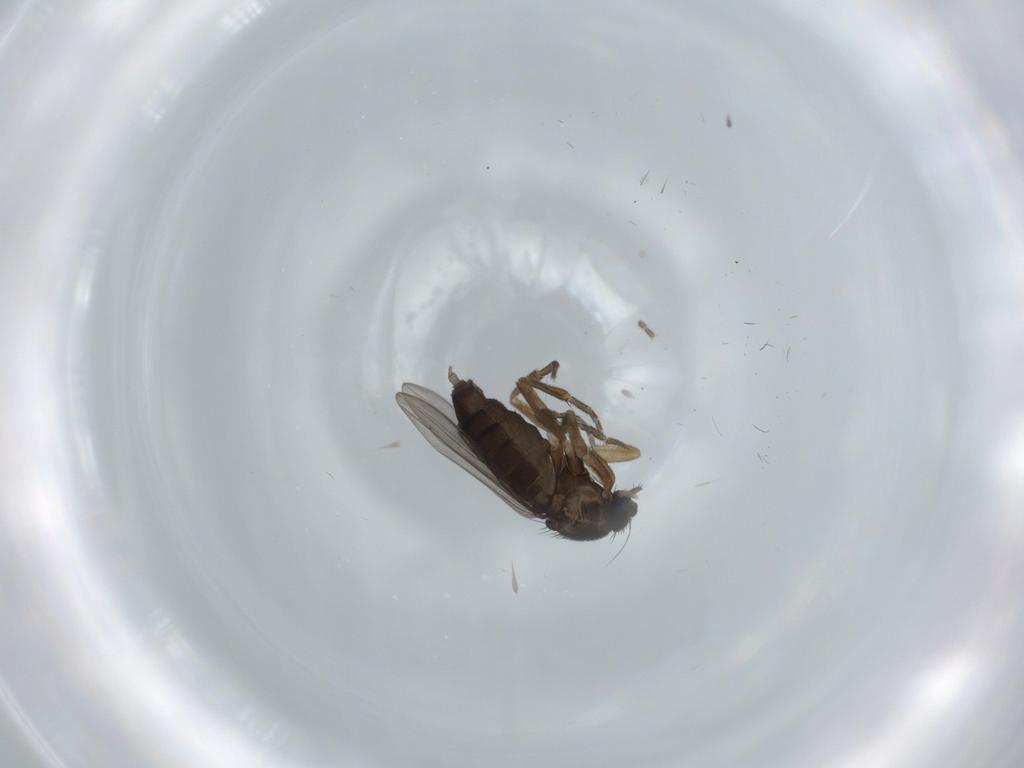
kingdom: Animalia
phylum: Arthropoda
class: Insecta
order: Diptera
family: Phoridae
